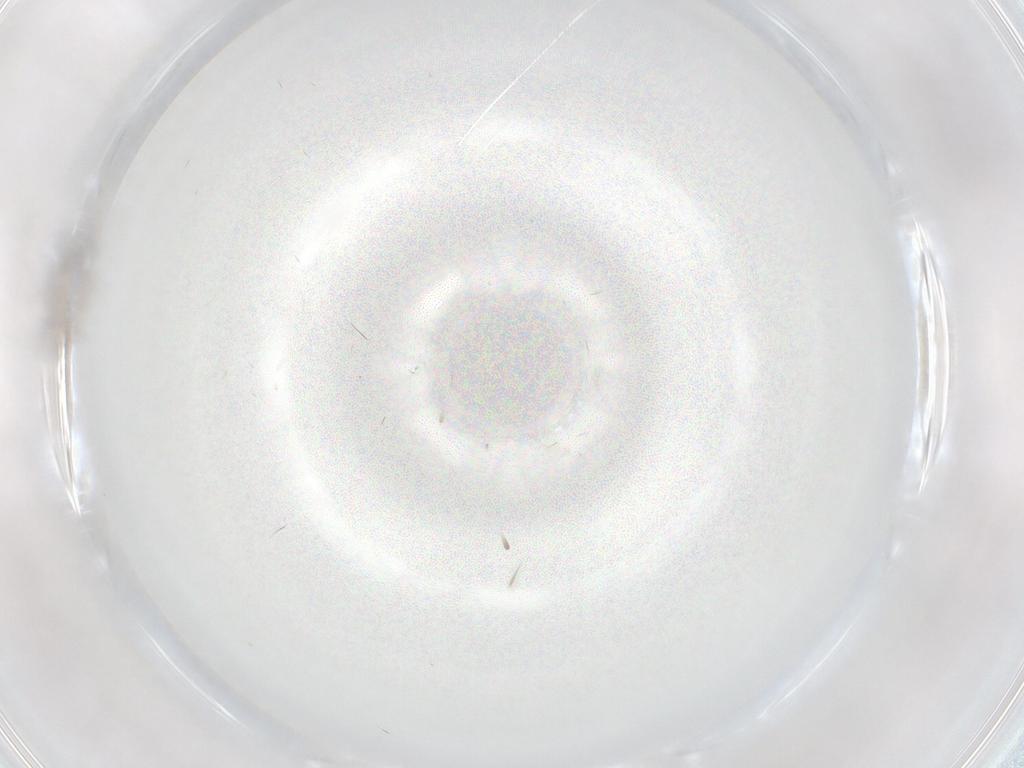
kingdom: Animalia
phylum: Arthropoda
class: Insecta
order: Diptera
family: Cecidomyiidae
